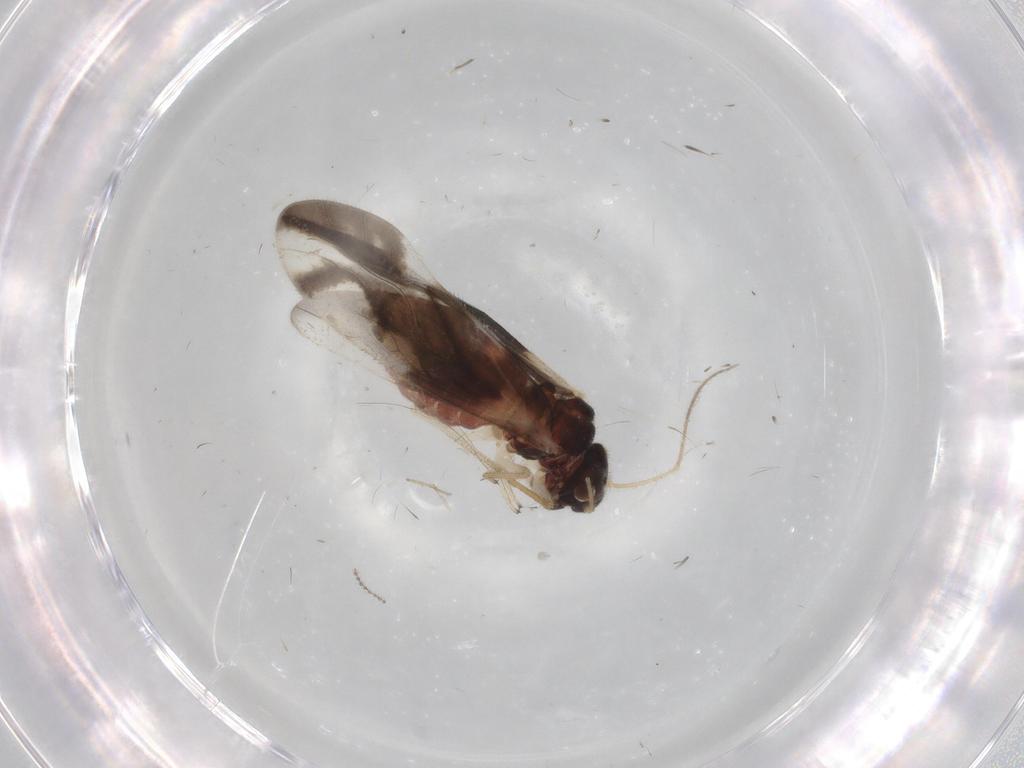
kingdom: Animalia
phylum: Arthropoda
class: Insecta
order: Psocodea
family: Caeciliusidae
